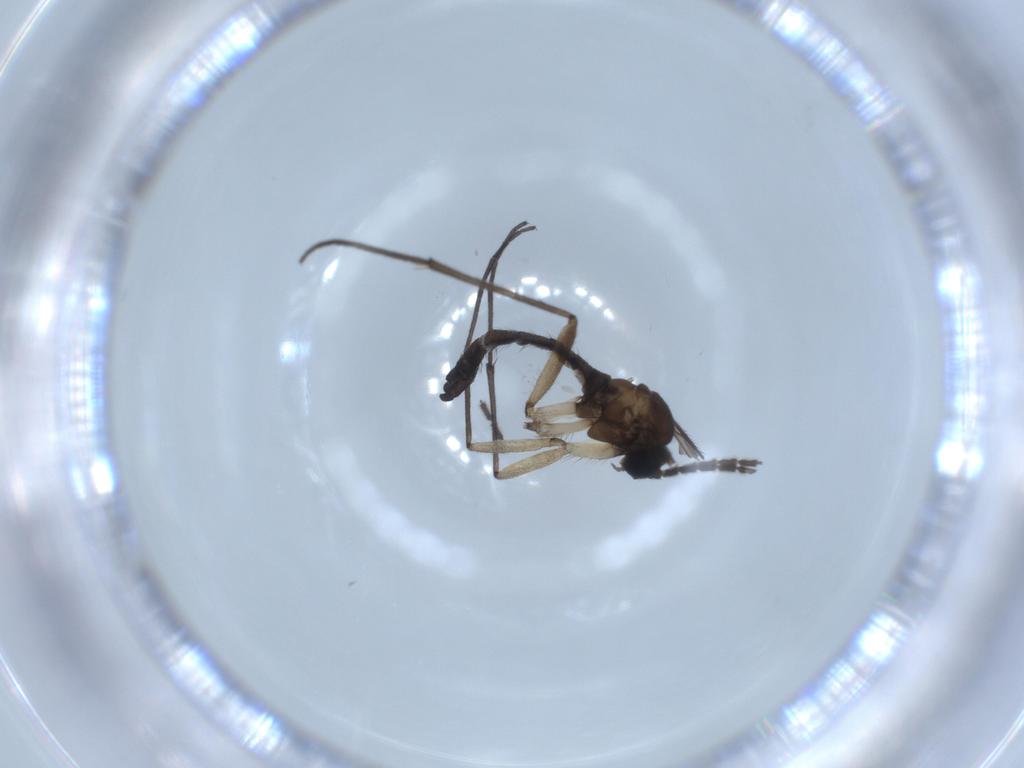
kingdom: Animalia
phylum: Arthropoda
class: Insecta
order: Diptera
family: Sciaridae
